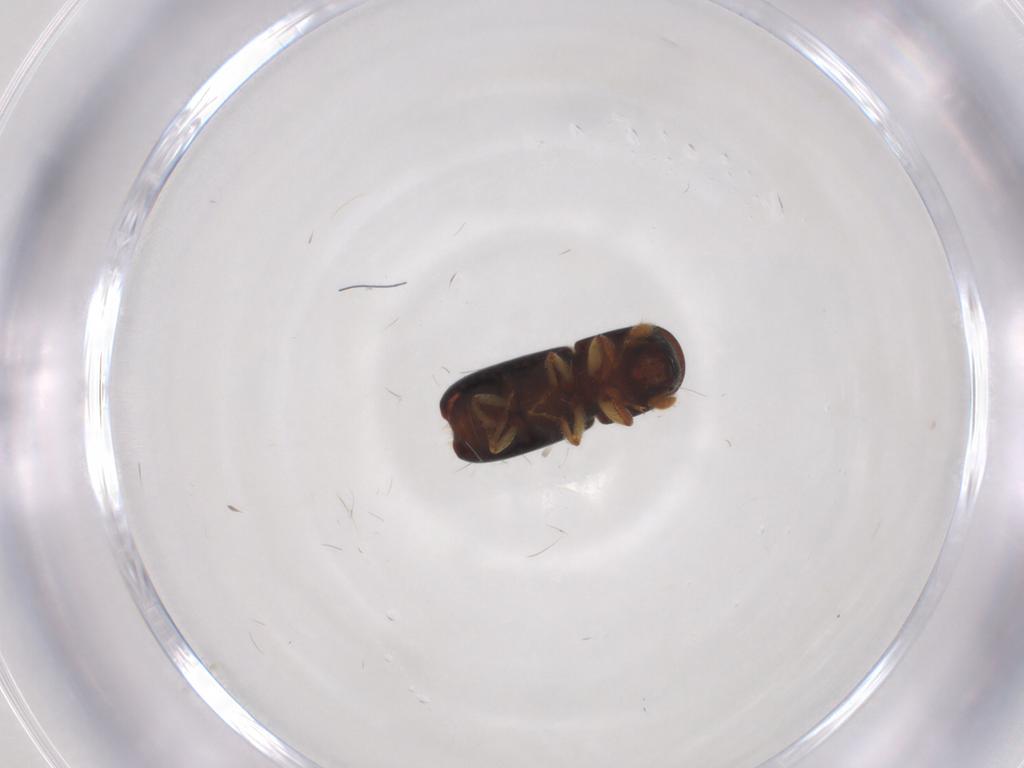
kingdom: Animalia
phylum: Arthropoda
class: Insecta
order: Coleoptera
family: Curculionidae
